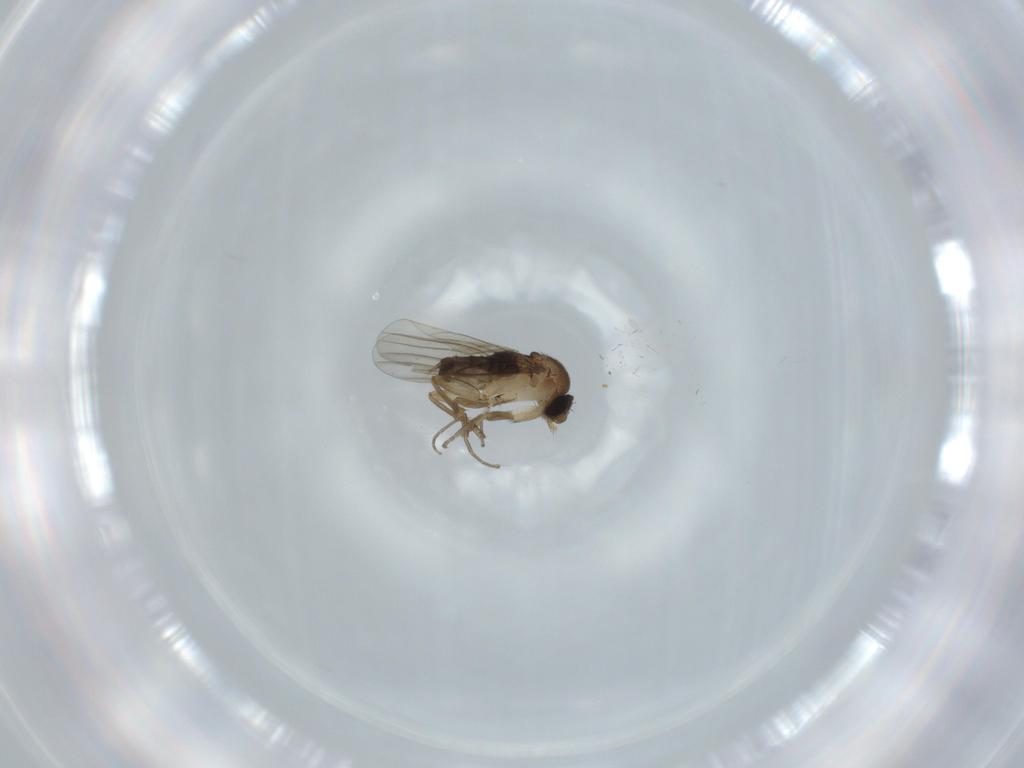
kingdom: Animalia
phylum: Arthropoda
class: Insecta
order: Diptera
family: Phoridae
